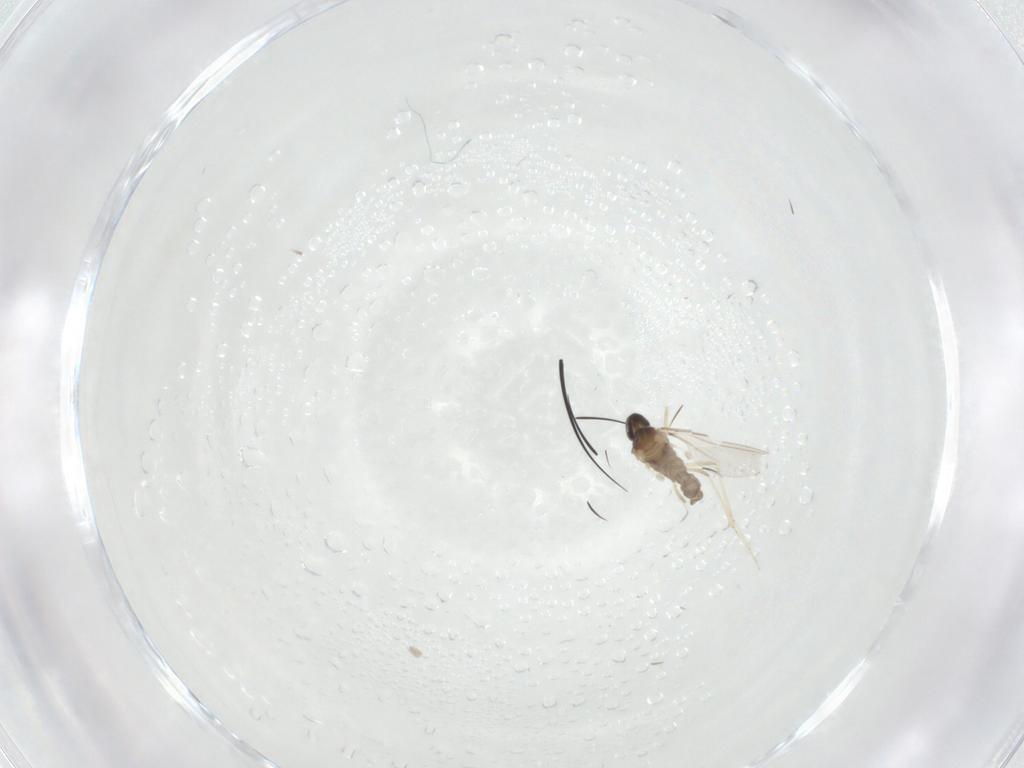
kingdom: Animalia
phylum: Arthropoda
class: Insecta
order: Diptera
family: Cecidomyiidae
